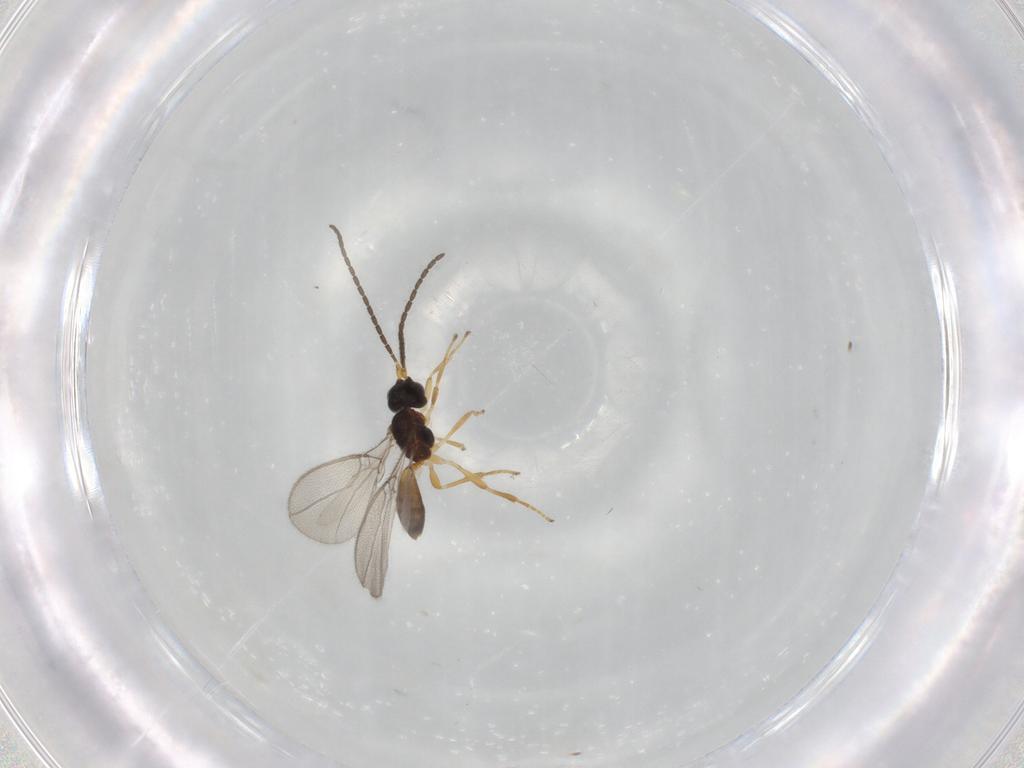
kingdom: Animalia
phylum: Arthropoda
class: Insecta
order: Hymenoptera
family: Braconidae
